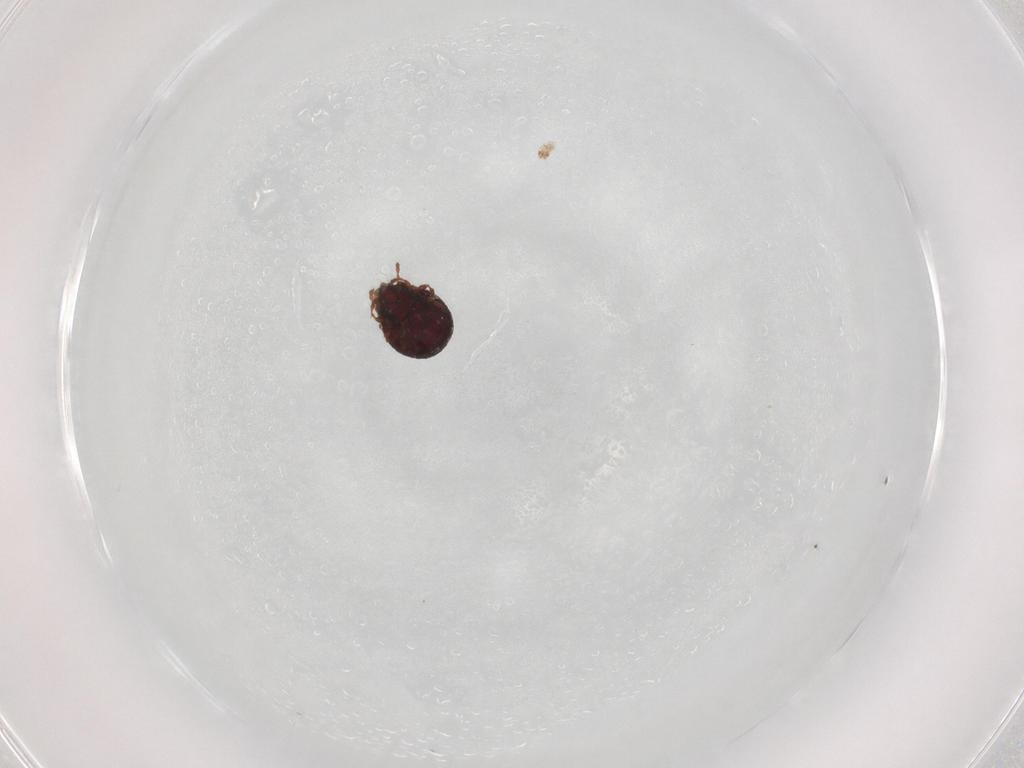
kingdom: Animalia
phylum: Arthropoda
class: Arachnida
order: Sarcoptiformes
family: Cepheusidae
